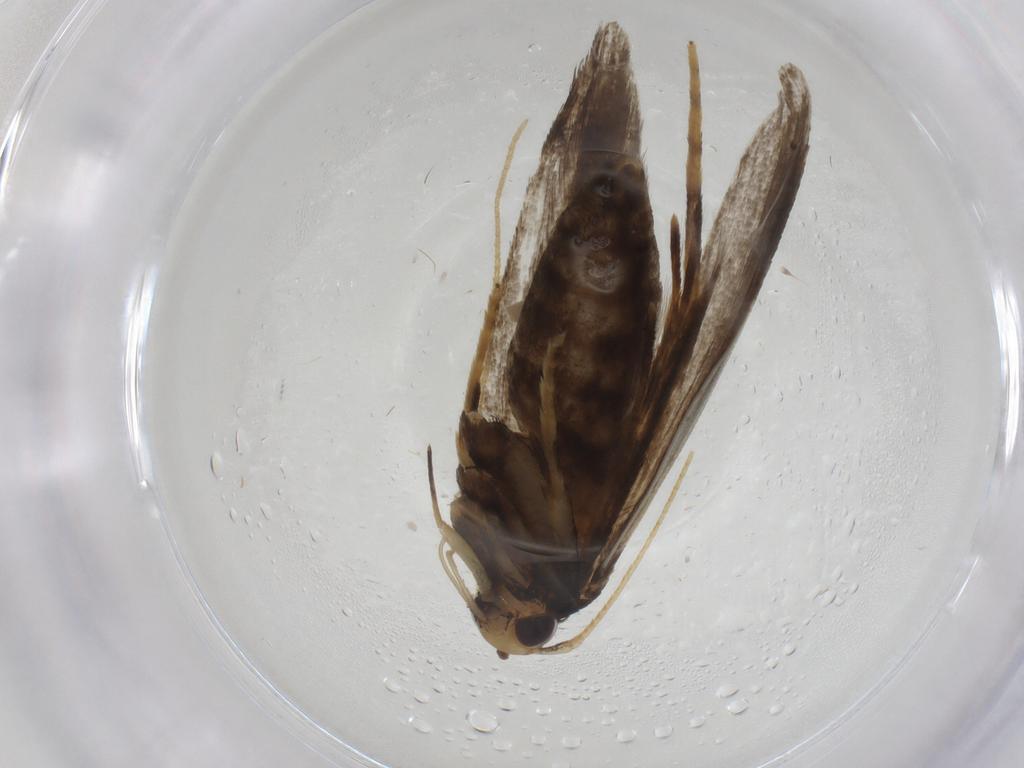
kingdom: Animalia
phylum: Arthropoda
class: Insecta
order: Lepidoptera
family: Lecithoceridae
